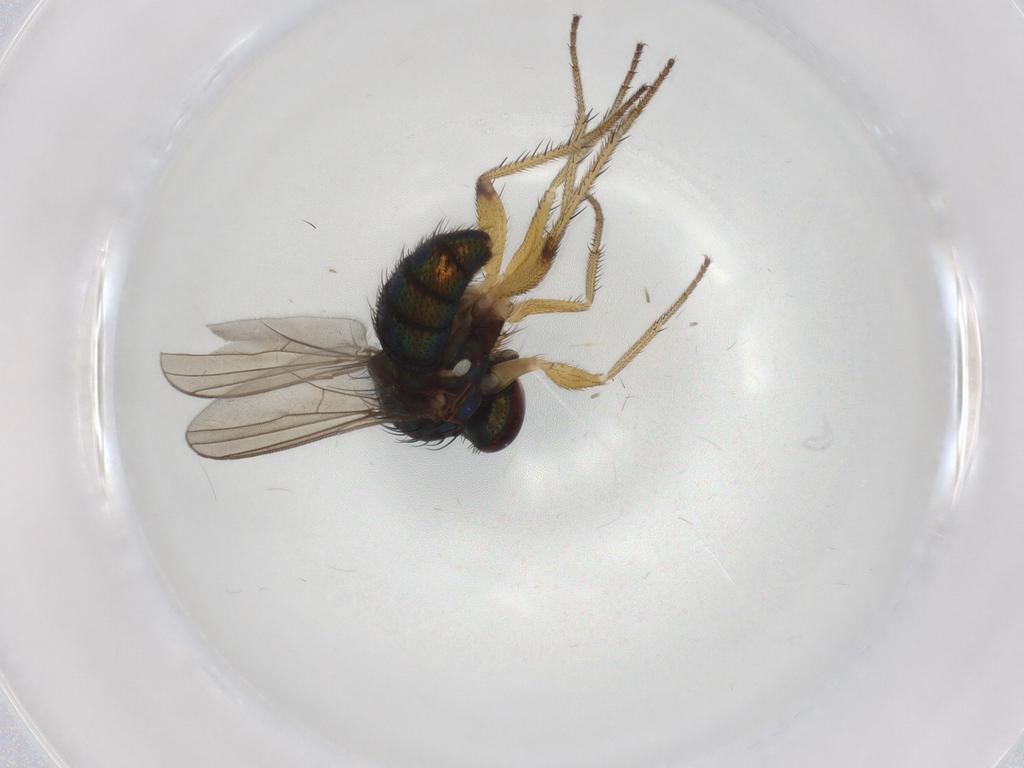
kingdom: Animalia
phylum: Arthropoda
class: Insecta
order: Diptera
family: Dolichopodidae
